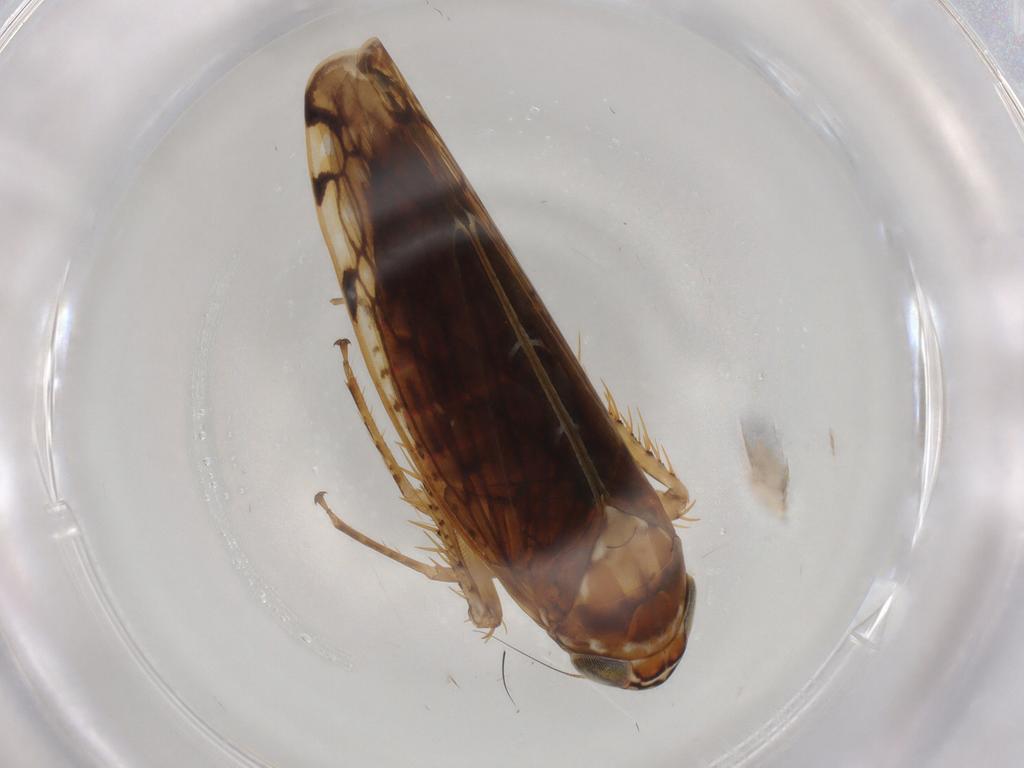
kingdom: Animalia
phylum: Arthropoda
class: Insecta
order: Hemiptera
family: Cicadellidae
